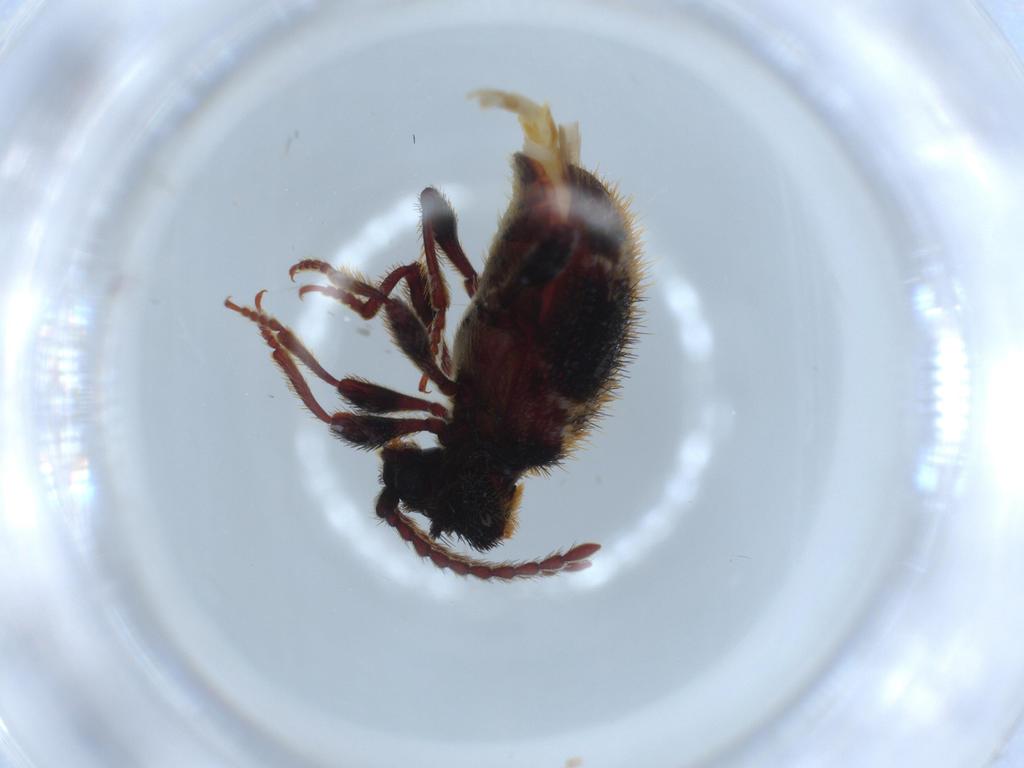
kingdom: Animalia
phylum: Arthropoda
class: Insecta
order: Coleoptera
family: Ptinidae
